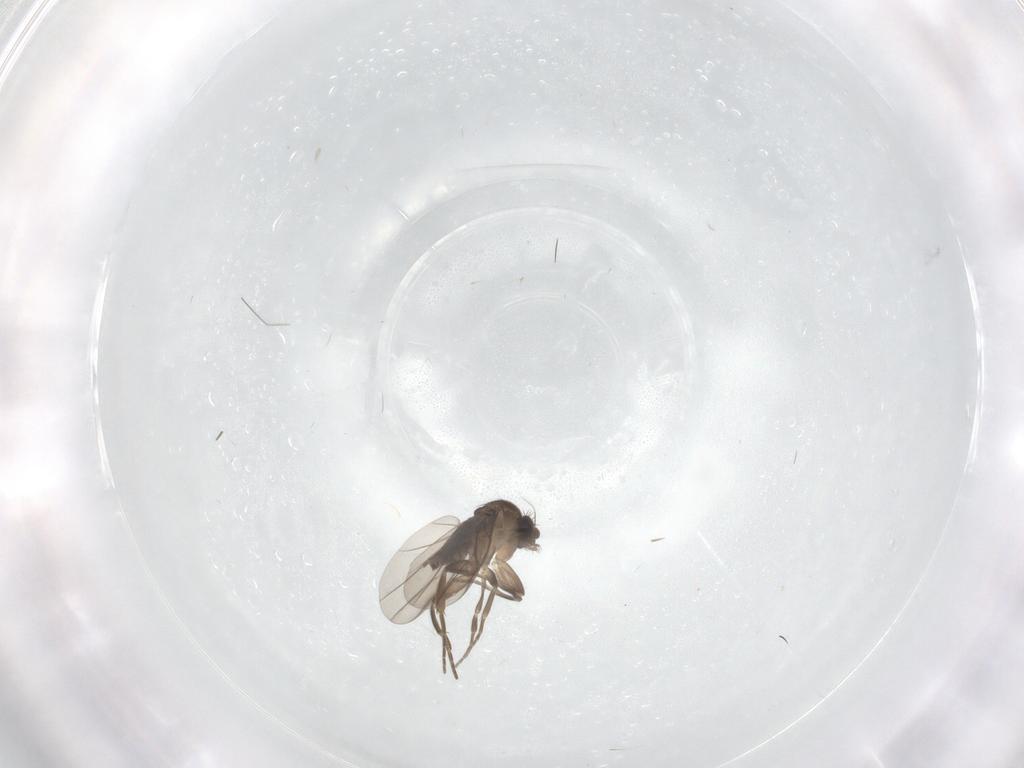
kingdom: Animalia
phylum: Arthropoda
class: Insecta
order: Diptera
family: Phoridae
